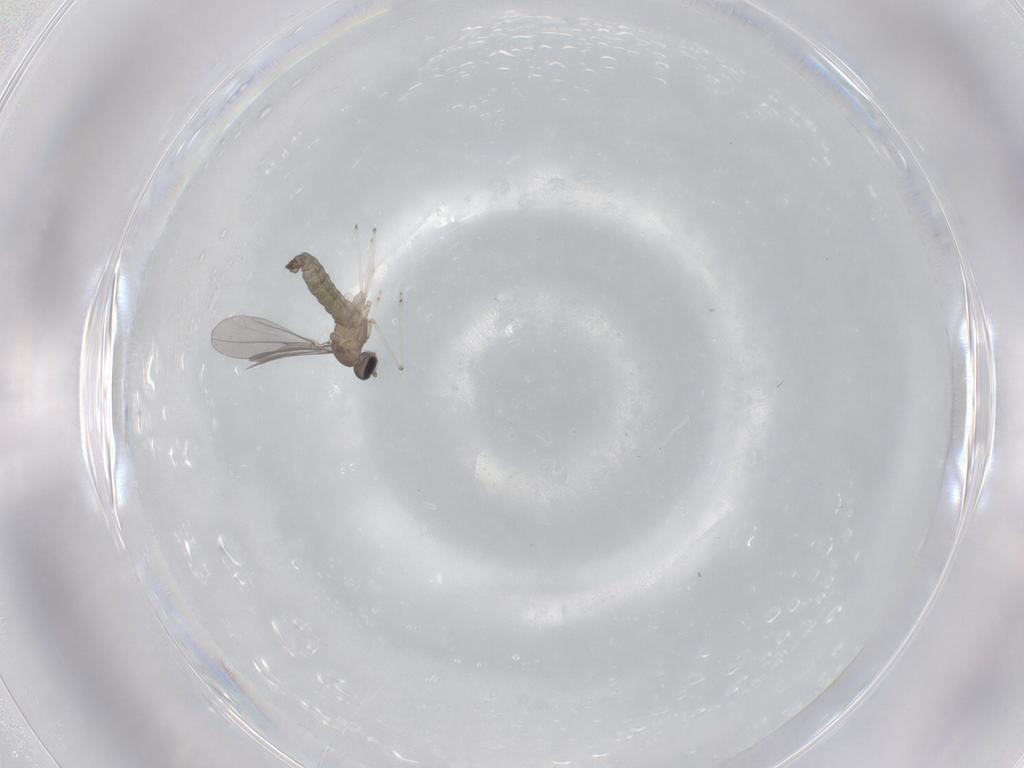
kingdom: Animalia
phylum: Arthropoda
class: Insecta
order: Diptera
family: Cecidomyiidae
